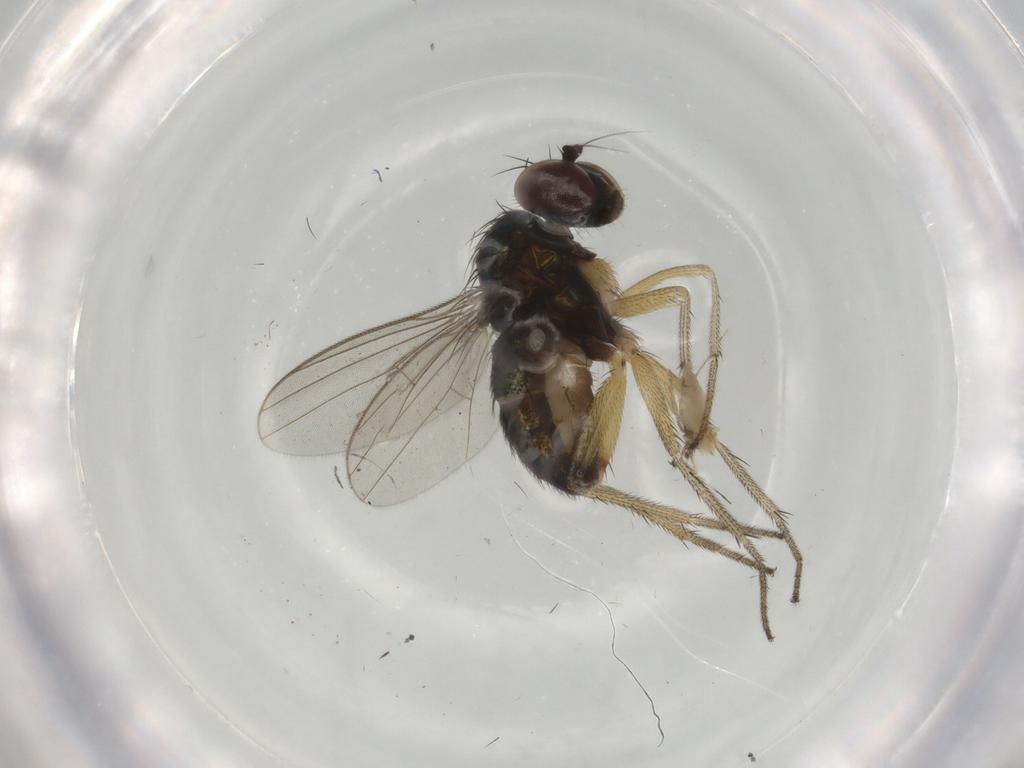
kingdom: Animalia
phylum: Arthropoda
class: Insecta
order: Diptera
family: Cecidomyiidae
